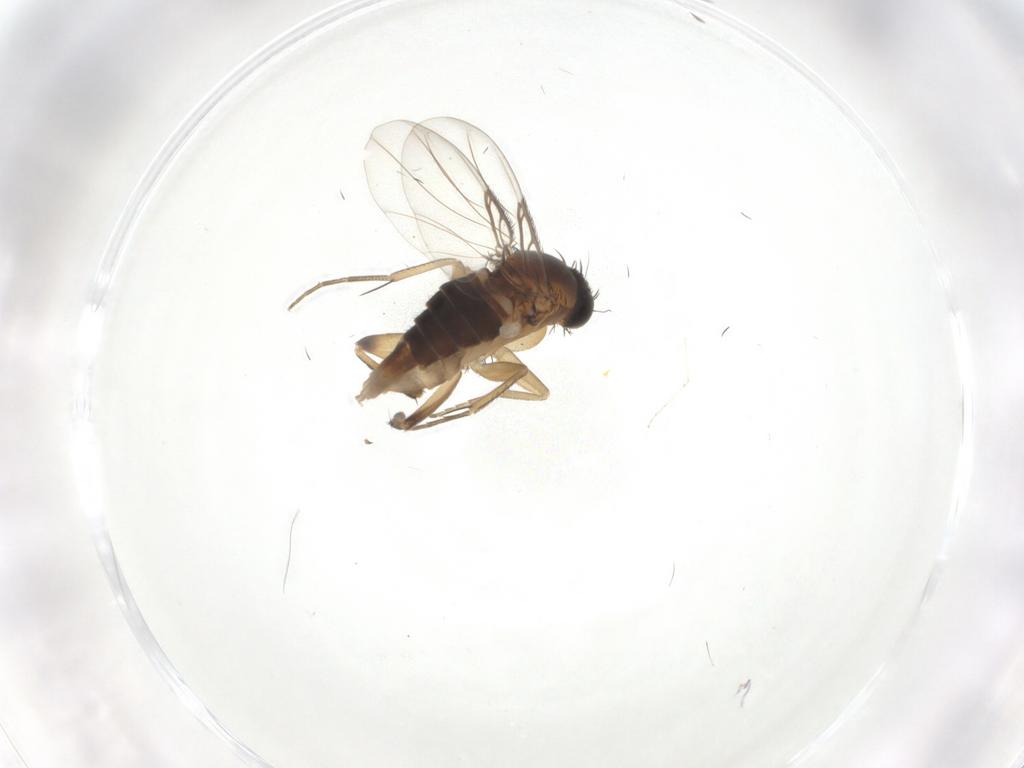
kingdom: Animalia
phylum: Arthropoda
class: Insecta
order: Diptera
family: Phoridae
